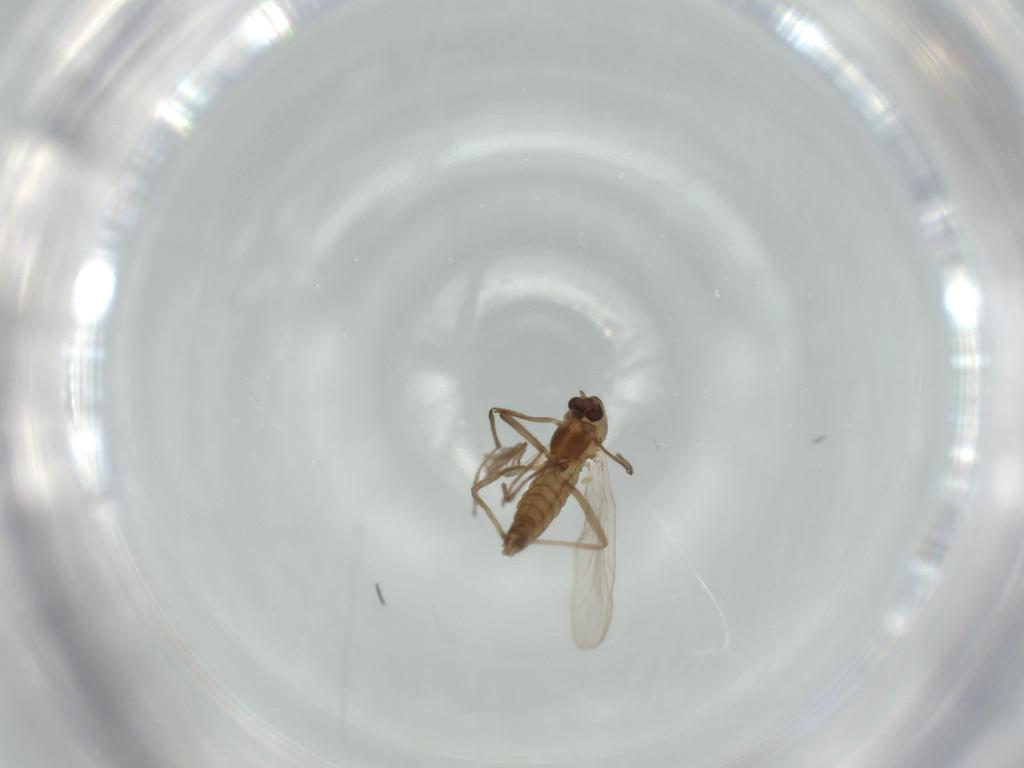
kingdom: Animalia
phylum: Arthropoda
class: Insecta
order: Diptera
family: Chironomidae
